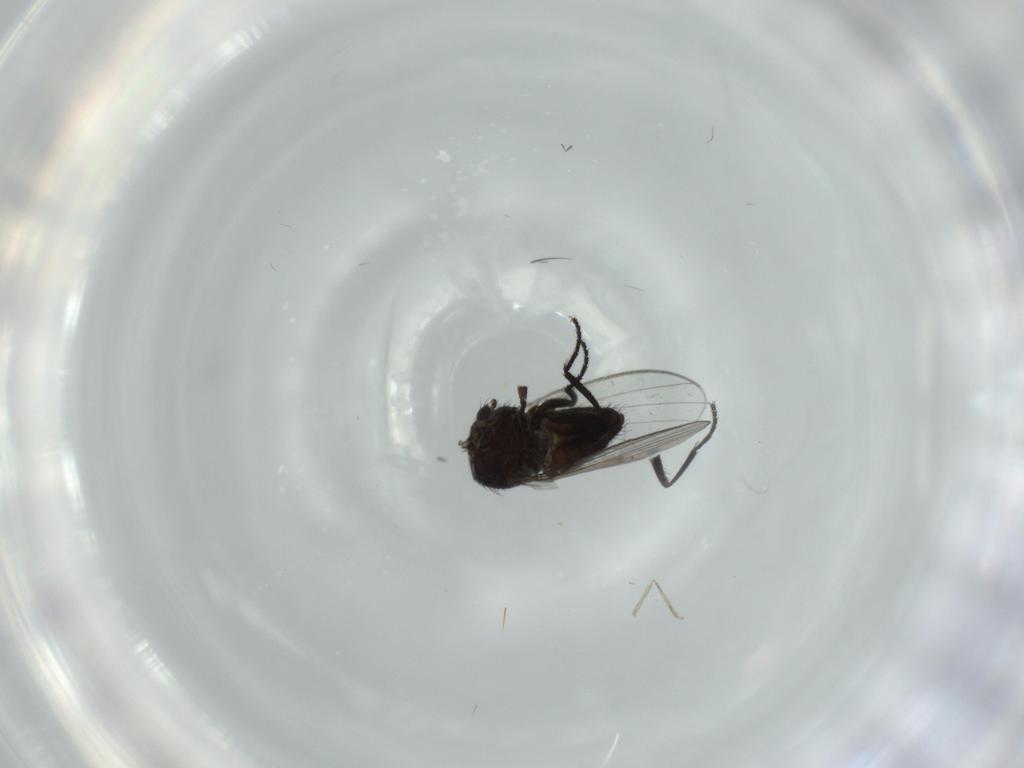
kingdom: Animalia
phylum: Arthropoda
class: Insecta
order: Diptera
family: Milichiidae
